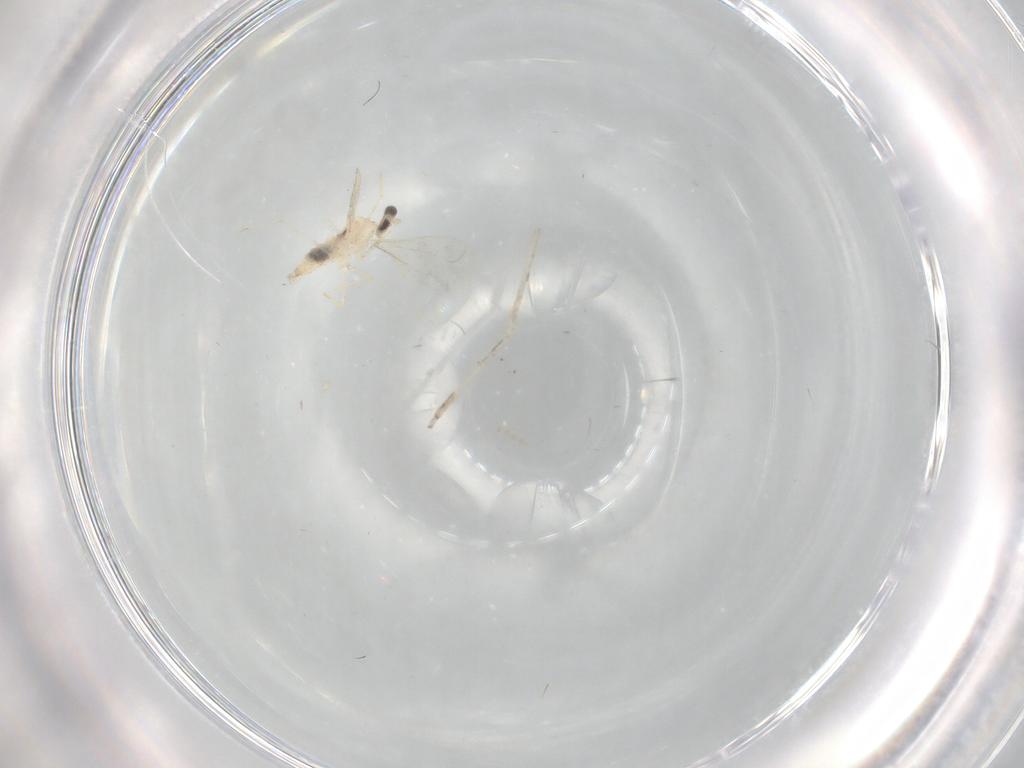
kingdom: Animalia
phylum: Arthropoda
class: Insecta
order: Diptera
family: Cecidomyiidae
